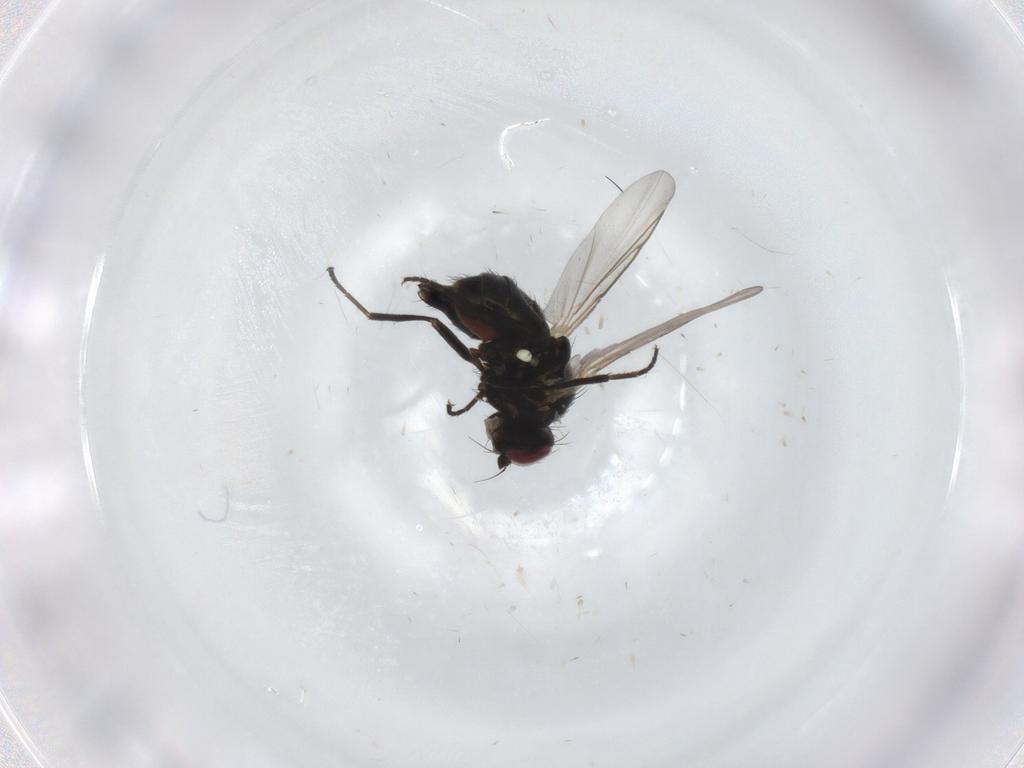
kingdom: Animalia
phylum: Arthropoda
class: Insecta
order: Diptera
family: Agromyzidae
